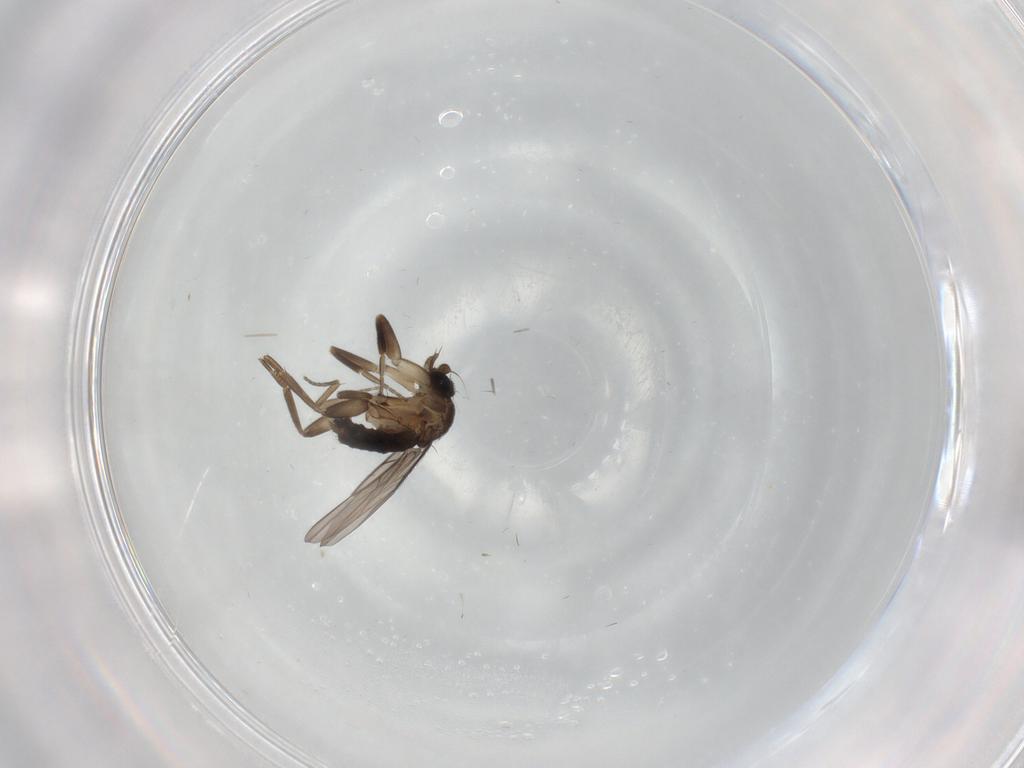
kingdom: Animalia
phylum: Arthropoda
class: Insecta
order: Diptera
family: Phoridae
